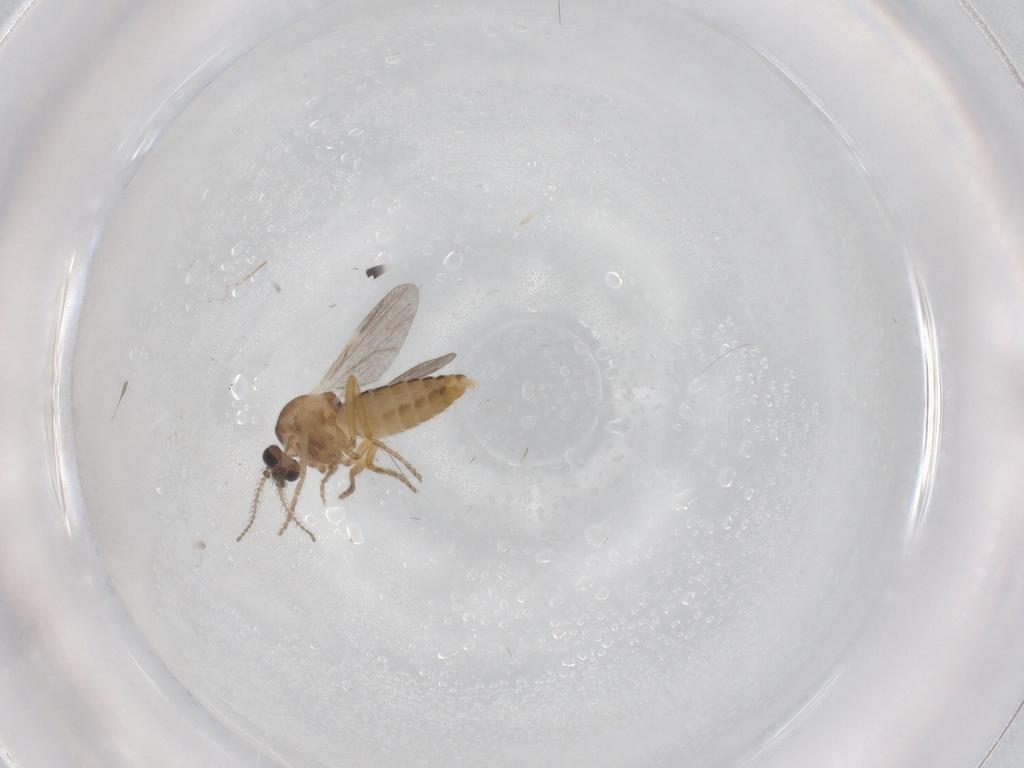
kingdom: Animalia
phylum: Arthropoda
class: Insecta
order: Diptera
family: Ceratopogonidae
